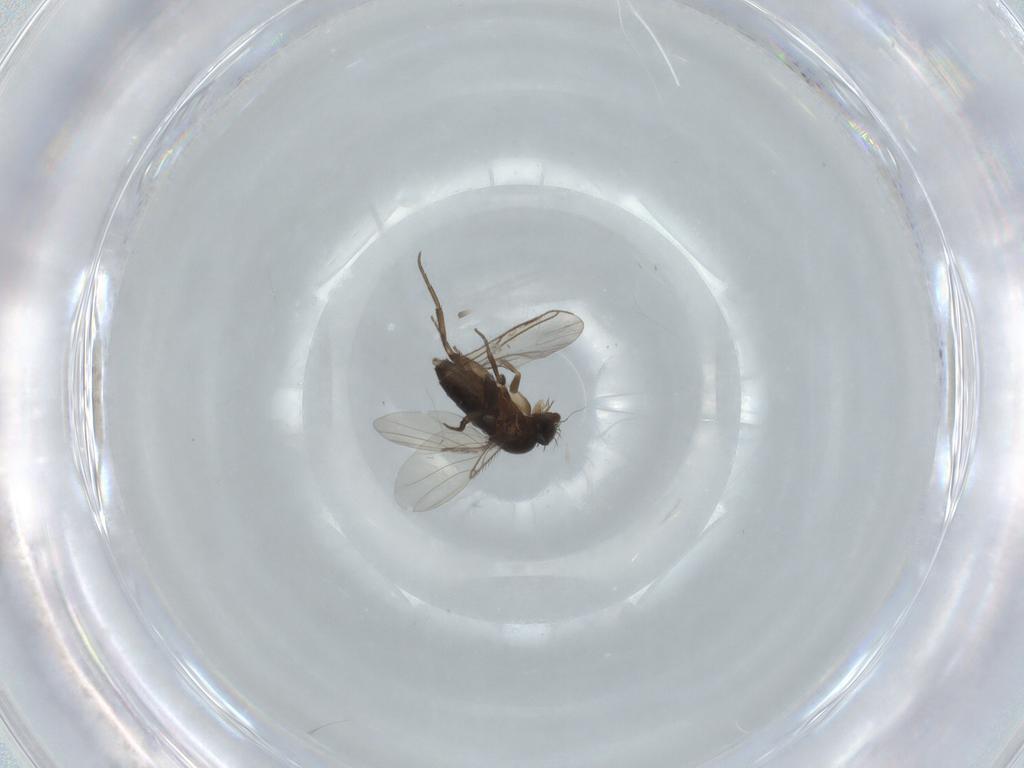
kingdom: Animalia
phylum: Arthropoda
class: Insecta
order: Diptera
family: Phoridae
